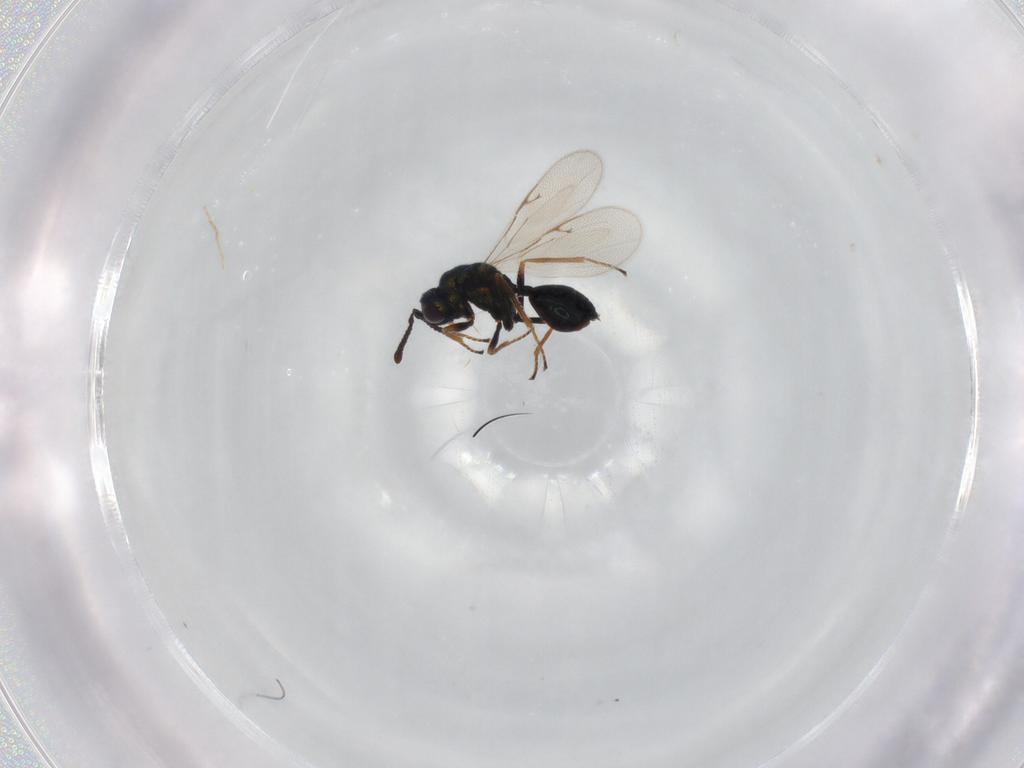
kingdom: Animalia
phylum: Arthropoda
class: Insecta
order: Hymenoptera
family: Pteromalidae
